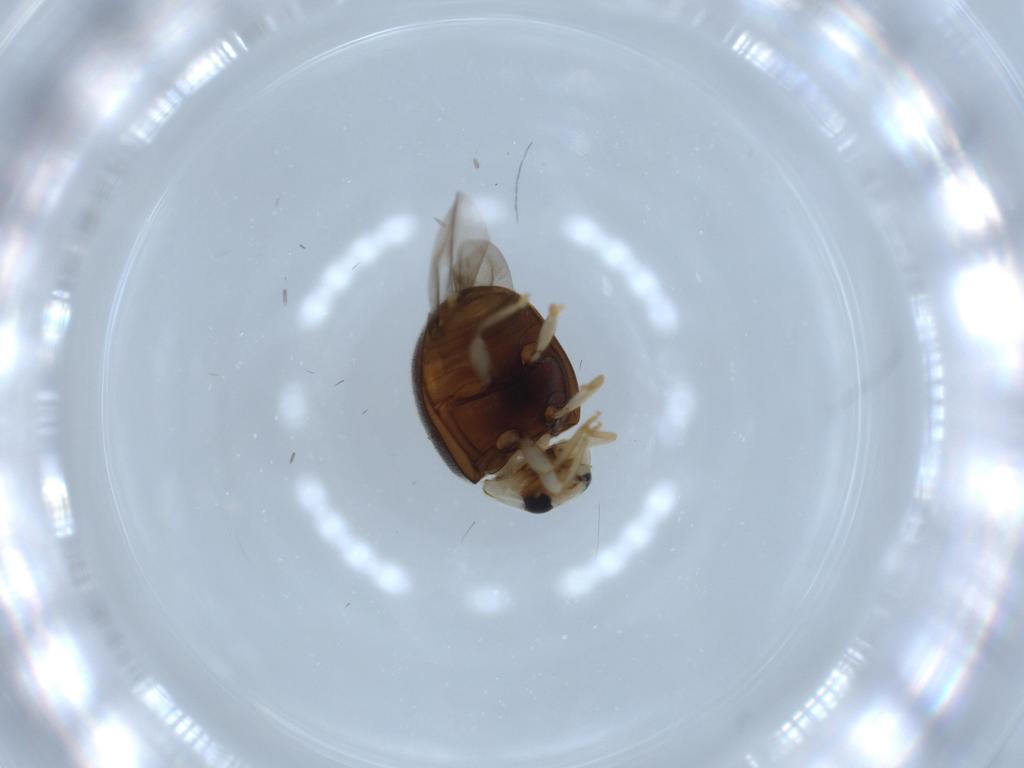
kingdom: Animalia
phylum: Arthropoda
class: Insecta
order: Coleoptera
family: Coccinellidae
